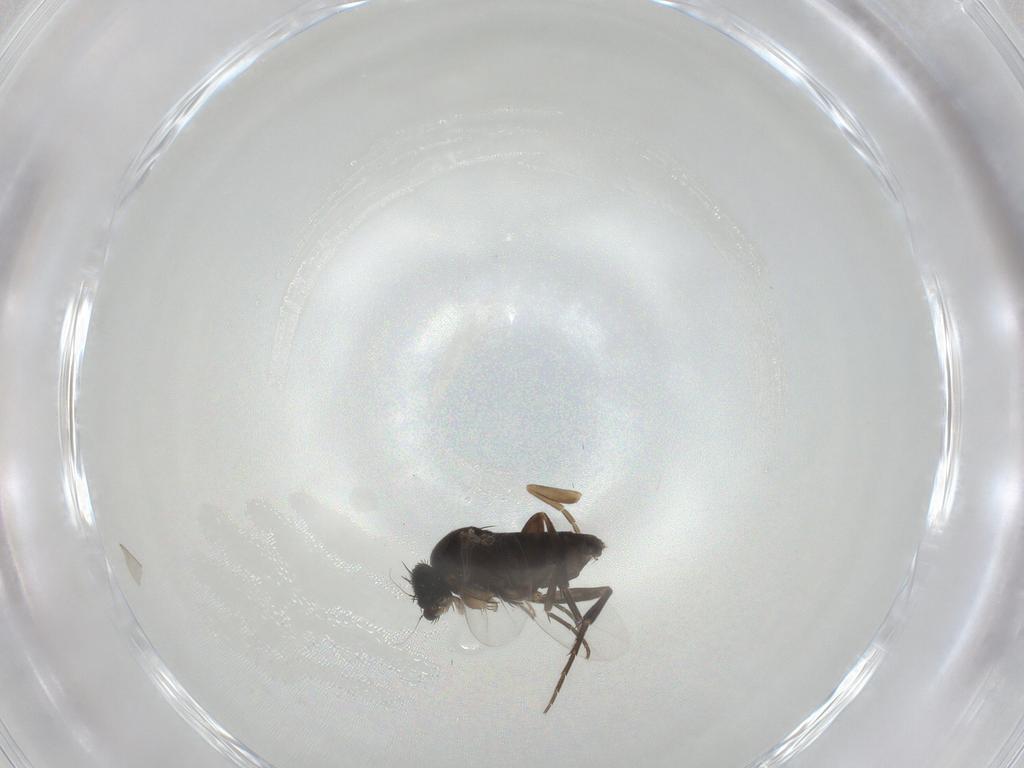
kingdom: Animalia
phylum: Arthropoda
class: Insecta
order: Diptera
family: Phoridae
